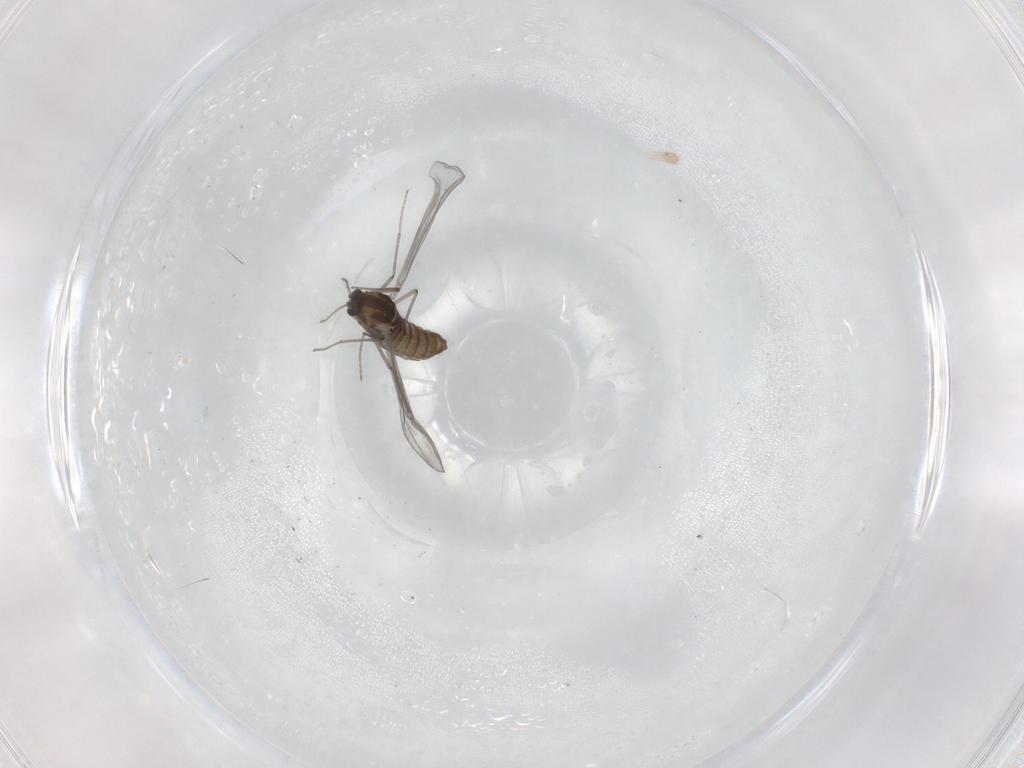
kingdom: Animalia
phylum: Arthropoda
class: Insecta
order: Diptera
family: Chironomidae
